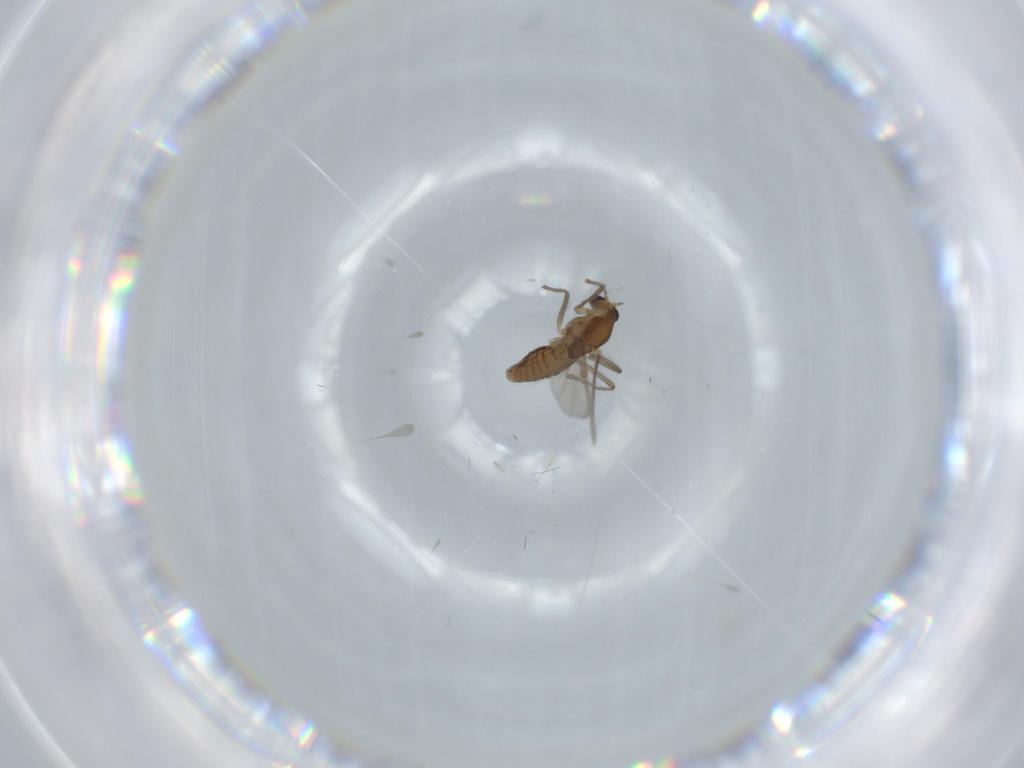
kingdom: Animalia
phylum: Arthropoda
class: Insecta
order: Diptera
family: Chironomidae
